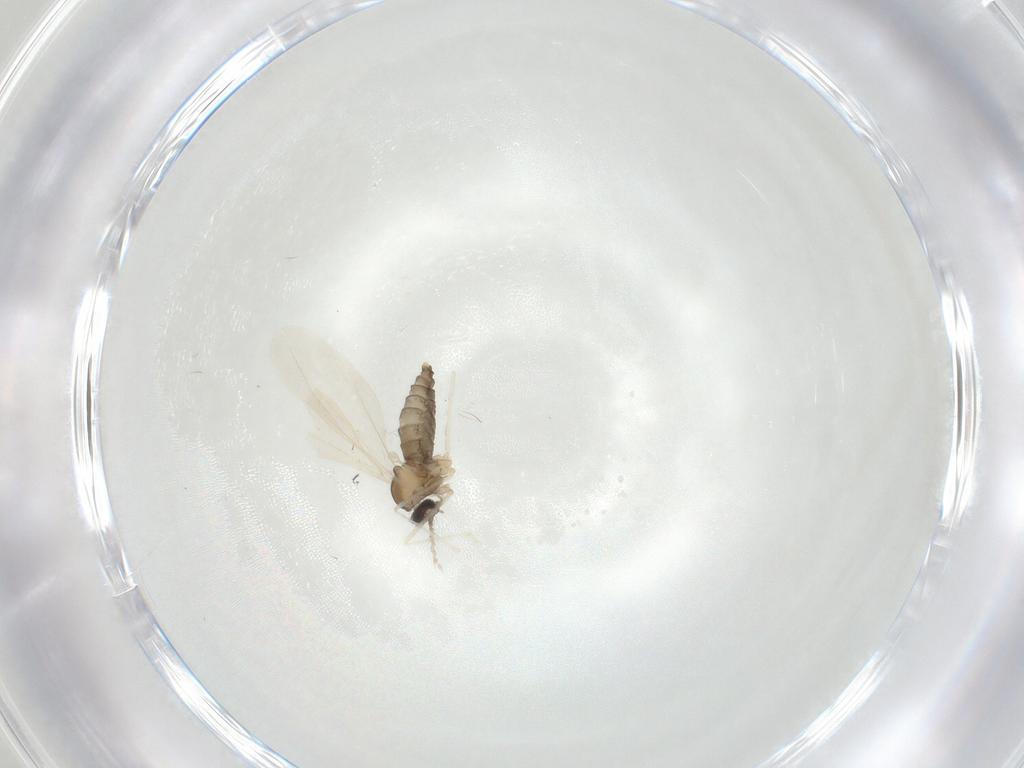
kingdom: Animalia
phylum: Arthropoda
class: Insecta
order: Diptera
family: Cecidomyiidae
